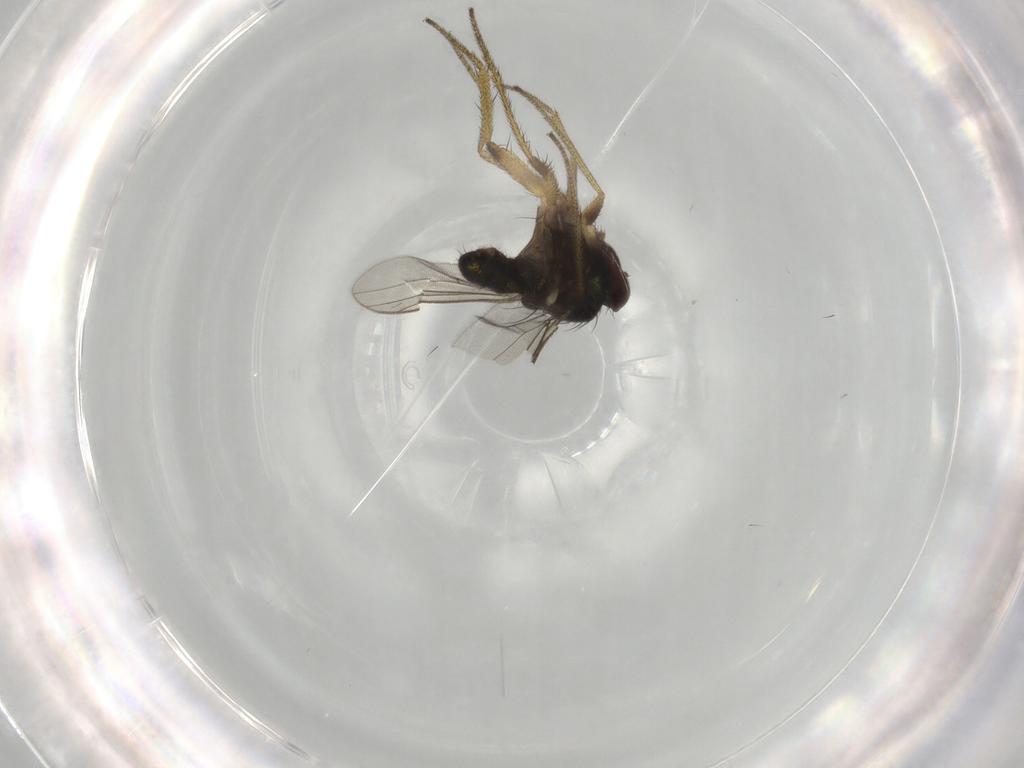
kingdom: Animalia
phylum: Arthropoda
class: Insecta
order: Diptera
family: Dolichopodidae
